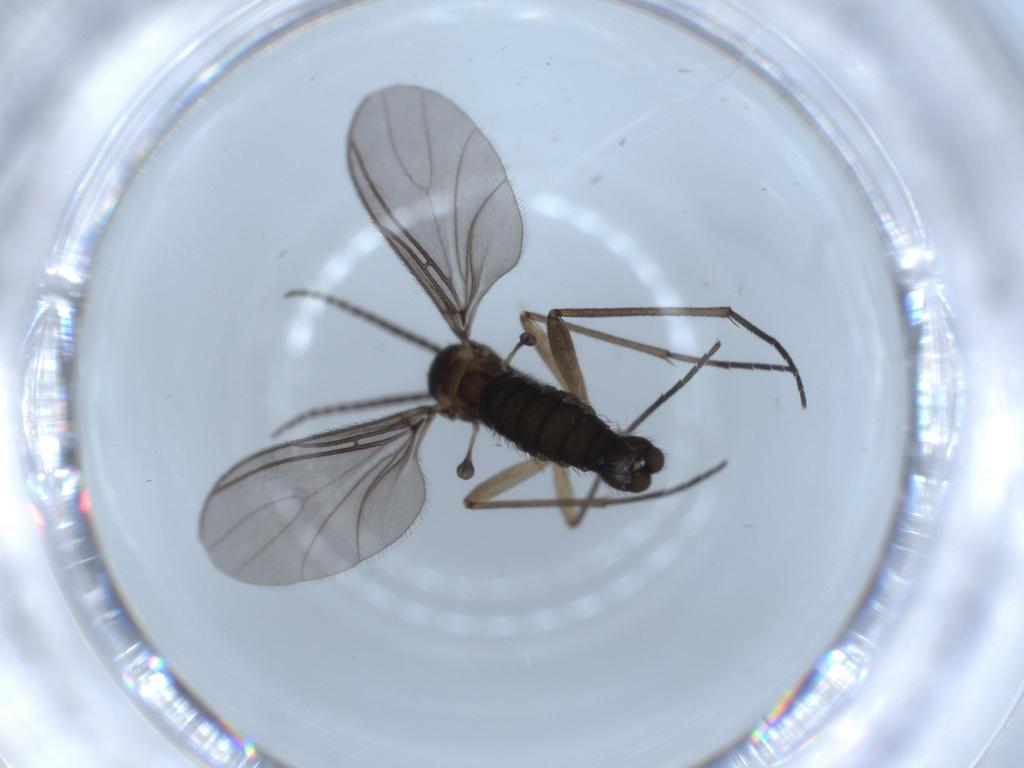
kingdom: Animalia
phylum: Arthropoda
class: Insecta
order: Diptera
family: Sciaridae
